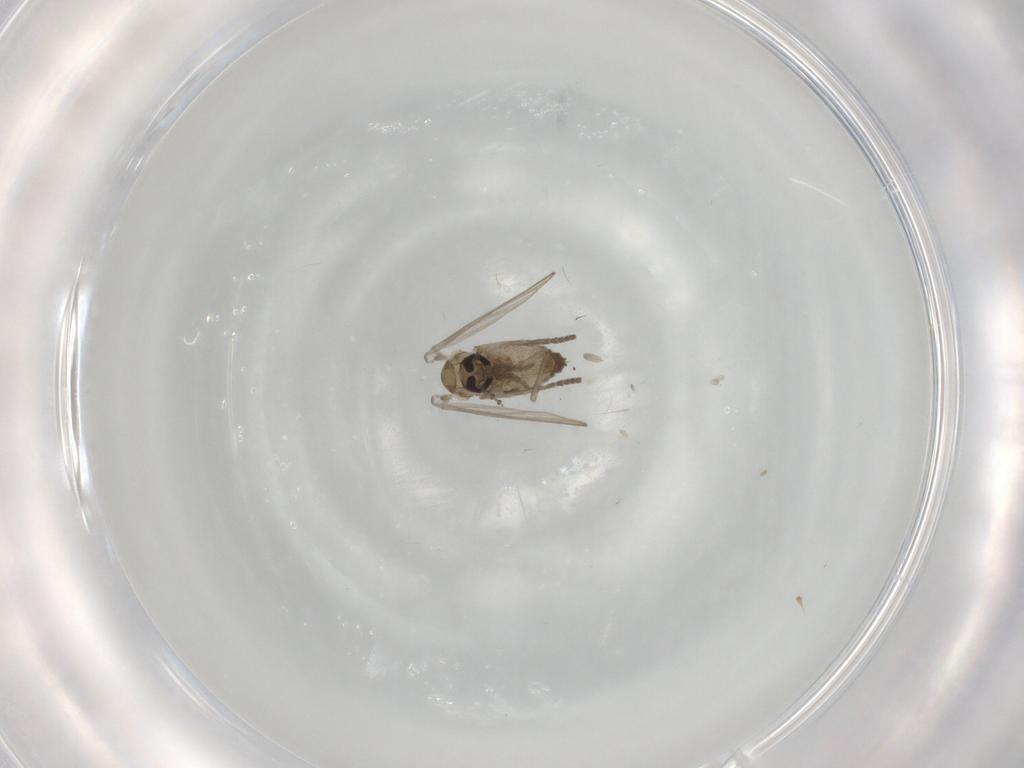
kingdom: Animalia
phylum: Arthropoda
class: Insecta
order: Diptera
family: Psychodidae
